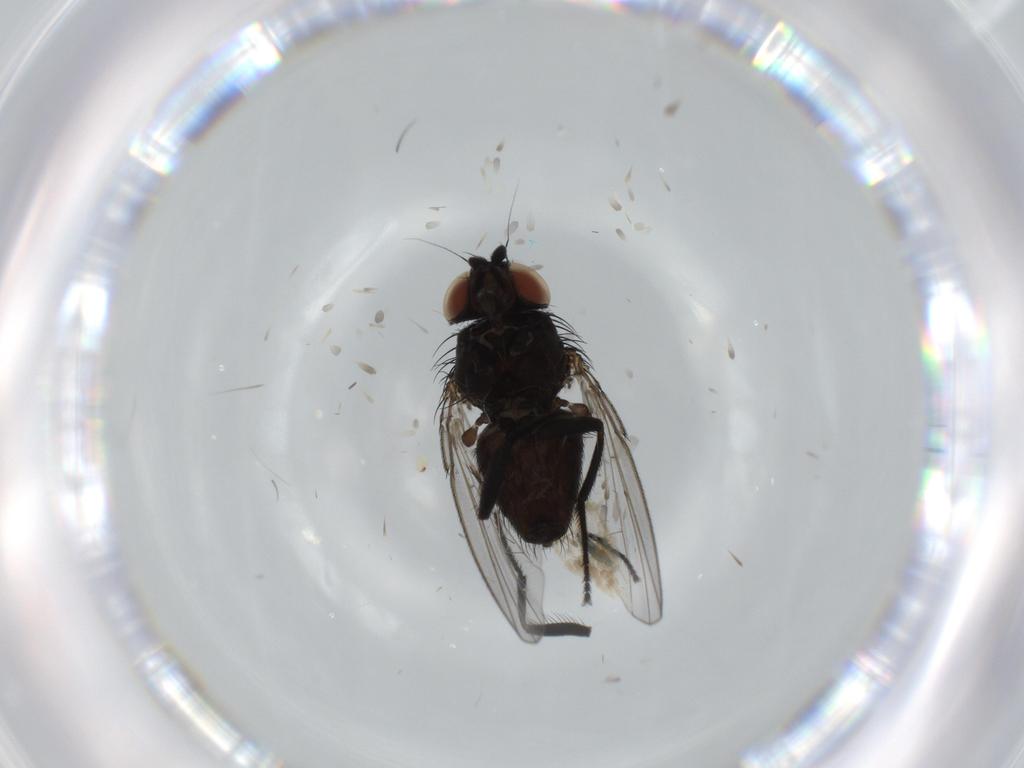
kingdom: Animalia
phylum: Arthropoda
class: Insecta
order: Diptera
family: Milichiidae
